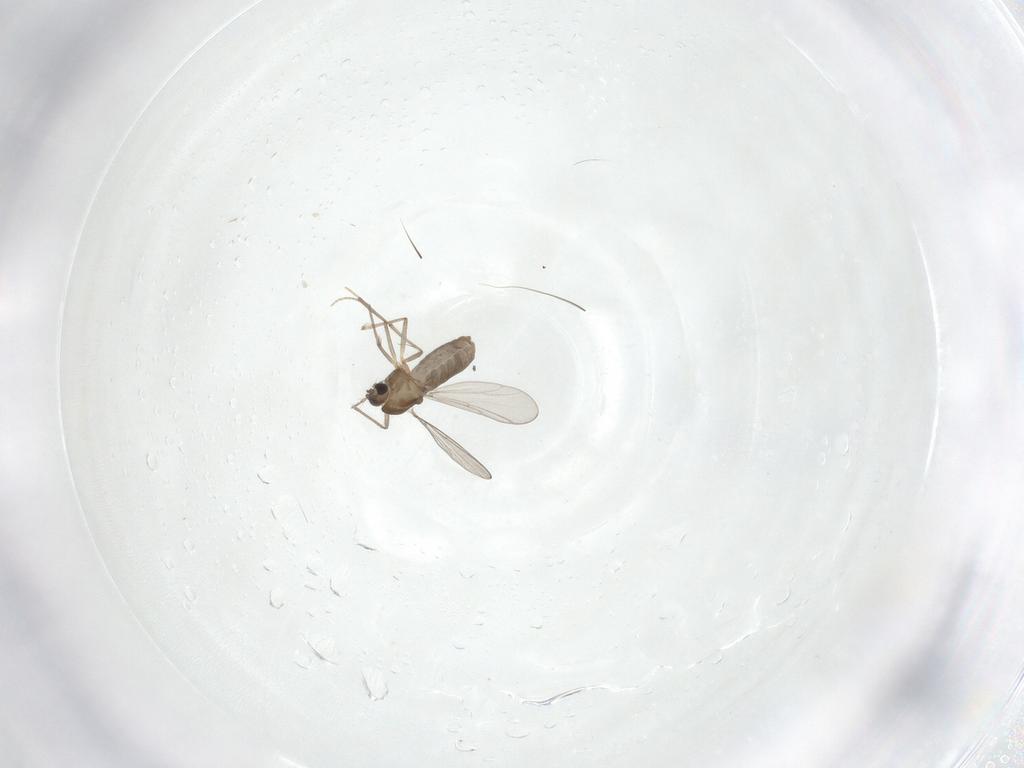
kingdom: Animalia
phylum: Arthropoda
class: Insecta
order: Diptera
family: Chironomidae
